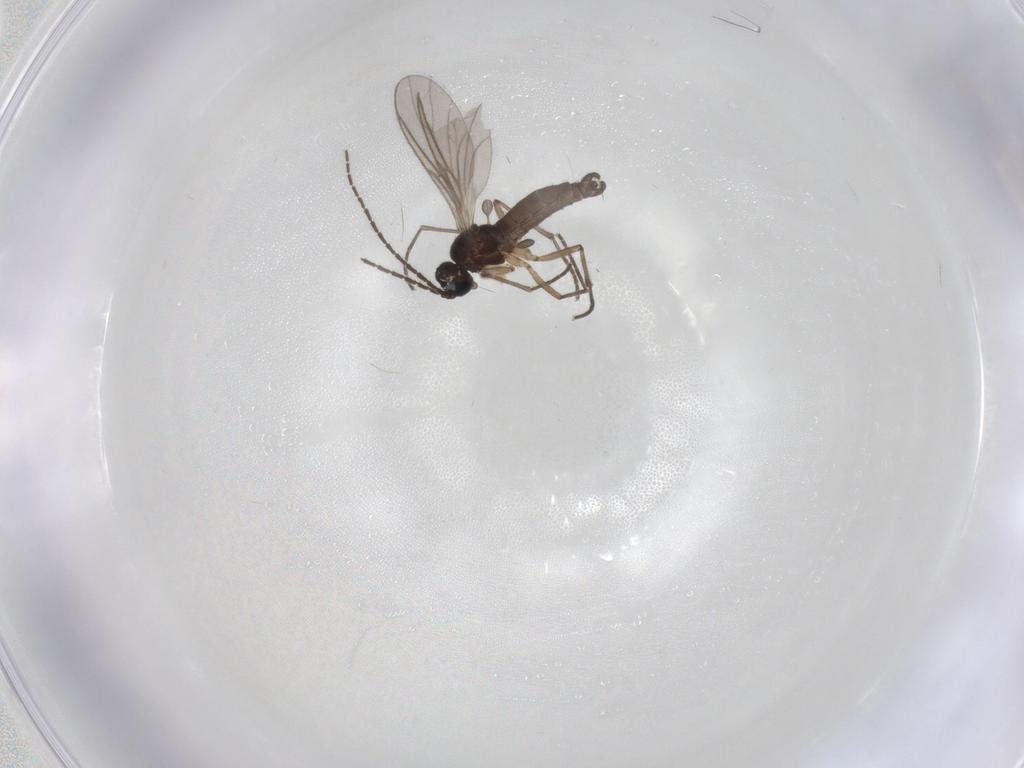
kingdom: Animalia
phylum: Arthropoda
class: Insecta
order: Diptera
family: Sciaridae
